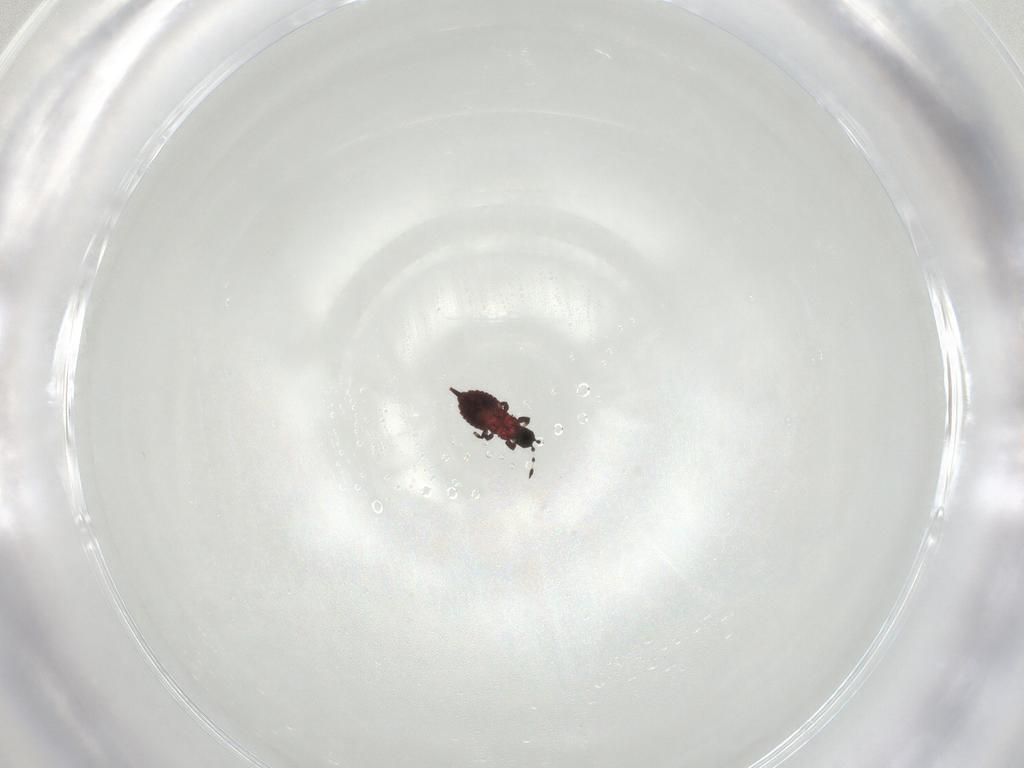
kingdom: Animalia
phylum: Arthropoda
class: Insecta
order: Thysanoptera
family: Phlaeothripidae
